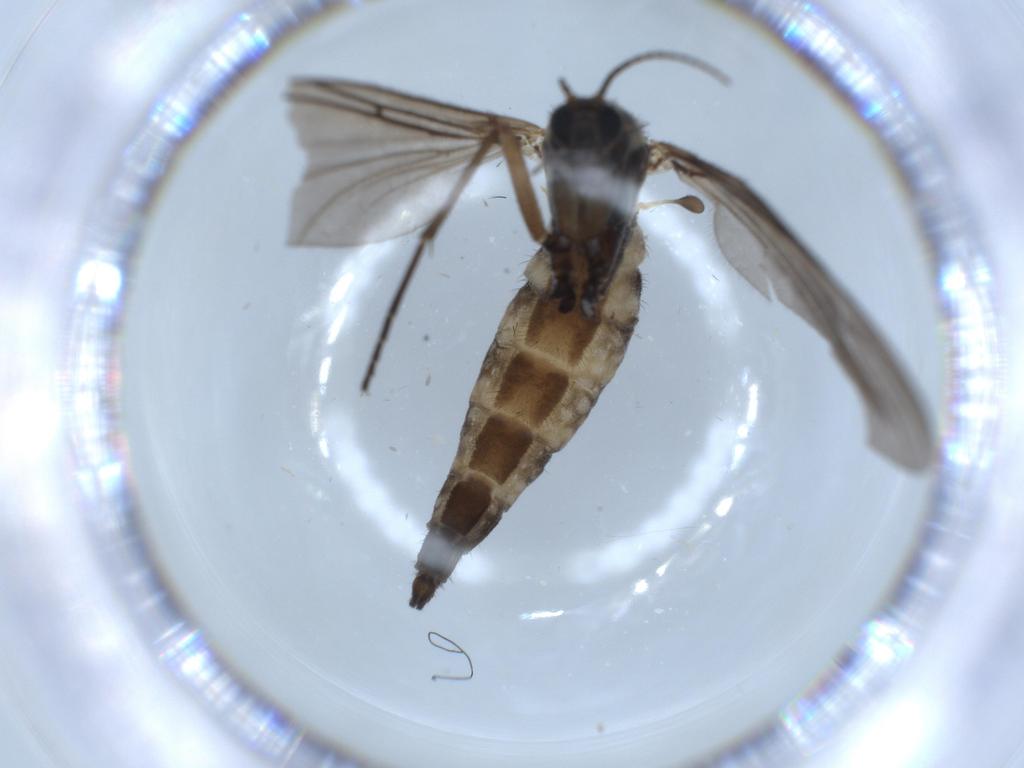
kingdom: Animalia
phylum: Arthropoda
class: Insecta
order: Diptera
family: Sciaridae
